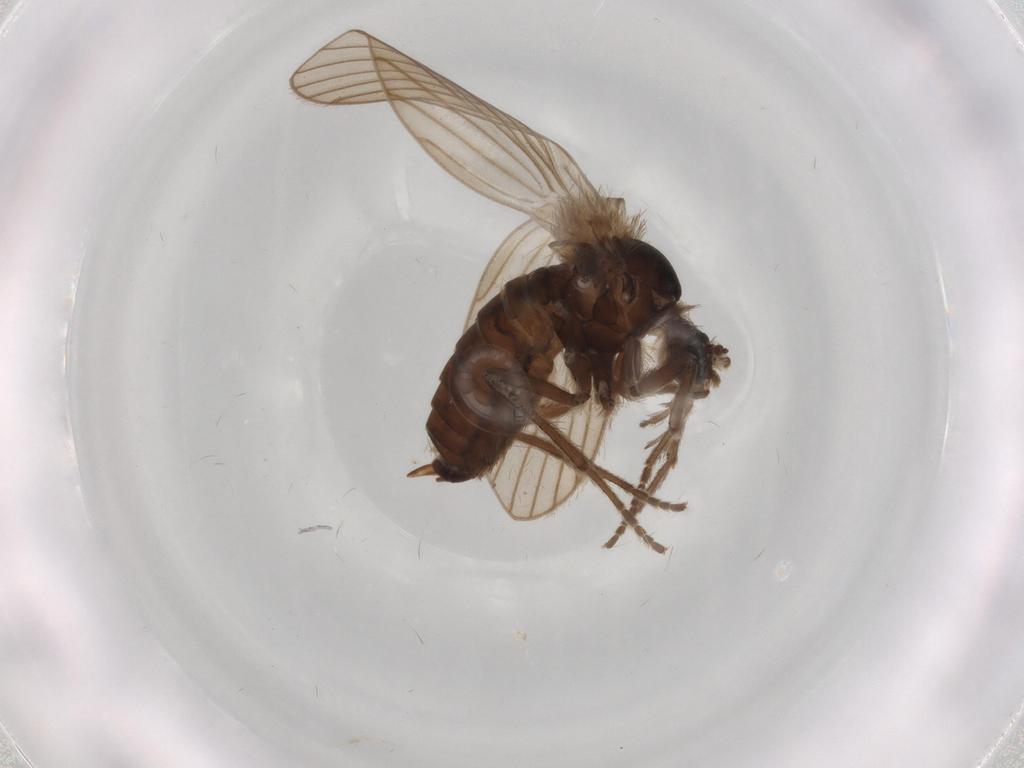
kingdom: Animalia
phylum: Arthropoda
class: Insecta
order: Diptera
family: Psychodidae
